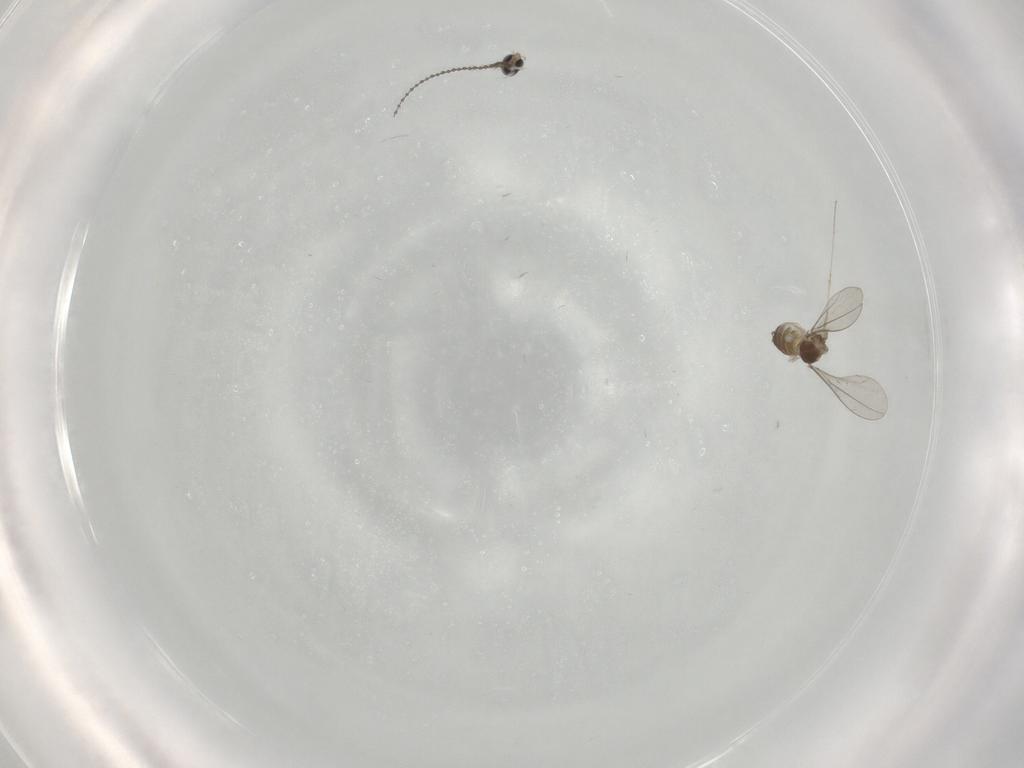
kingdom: Animalia
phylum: Arthropoda
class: Insecta
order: Diptera
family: Cecidomyiidae
